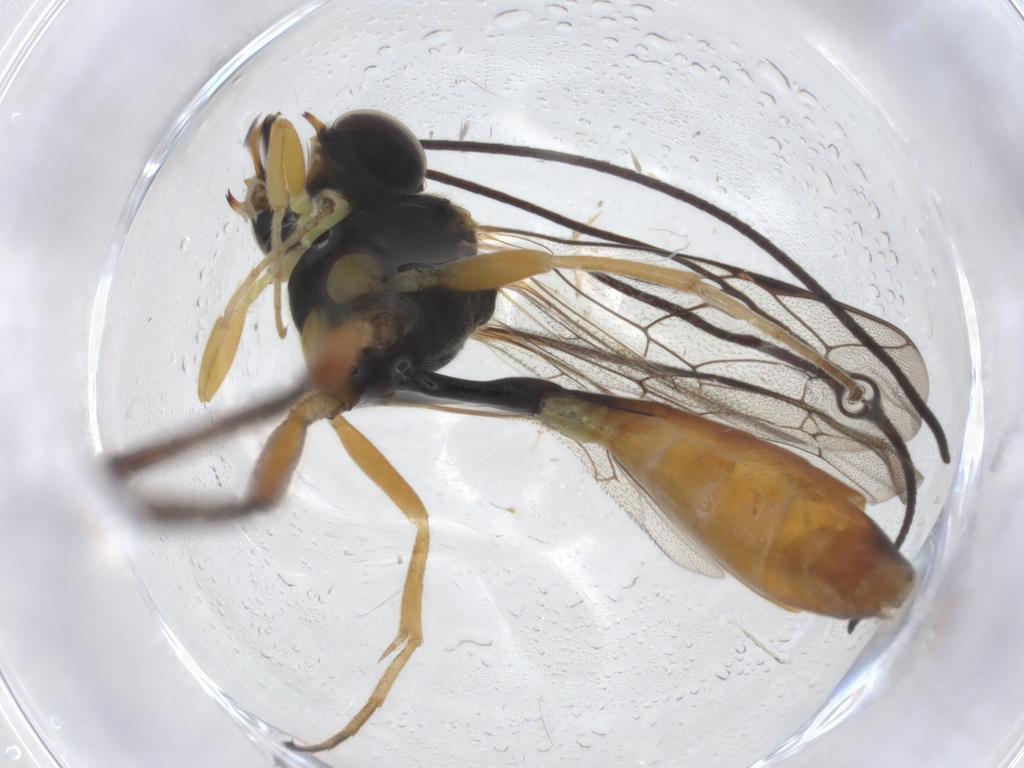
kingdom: Animalia
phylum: Arthropoda
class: Insecta
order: Hymenoptera
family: Ichneumonidae
